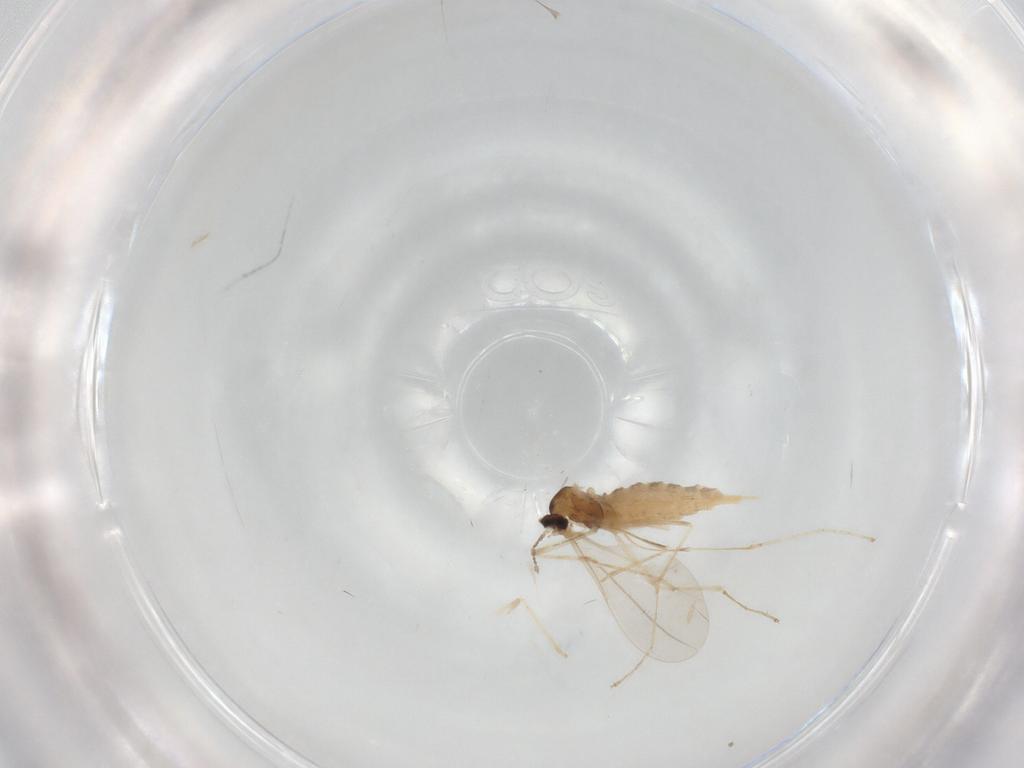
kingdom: Animalia
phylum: Arthropoda
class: Insecta
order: Diptera
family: Cecidomyiidae
